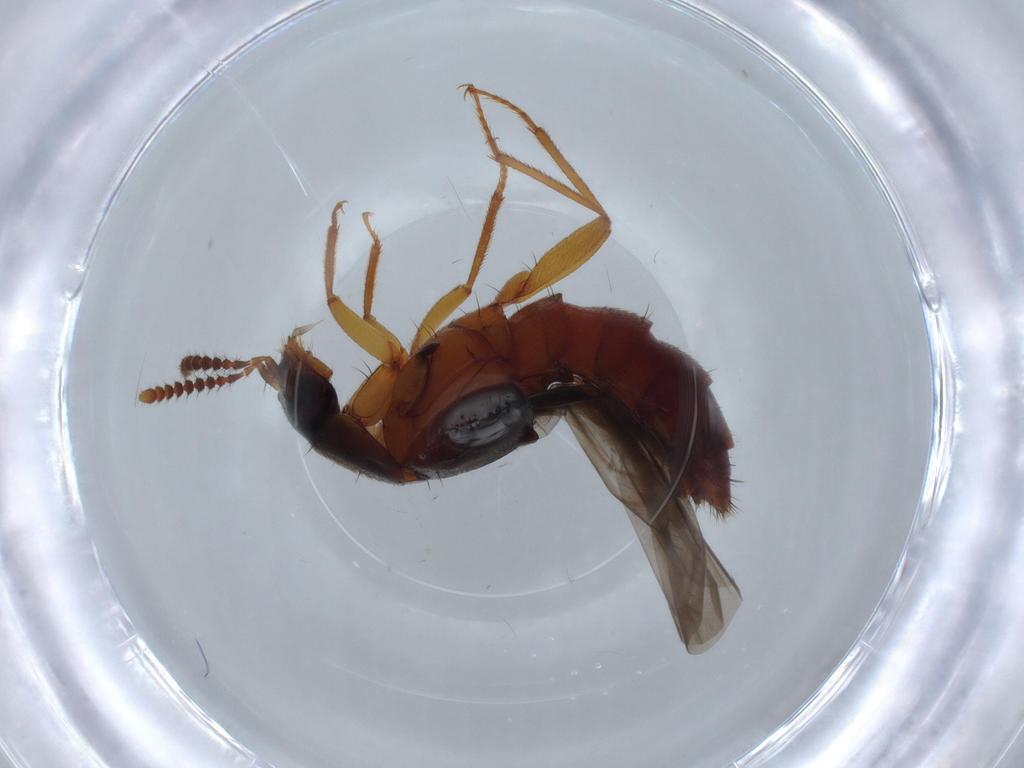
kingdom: Animalia
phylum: Arthropoda
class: Insecta
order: Coleoptera
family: Staphylinidae
